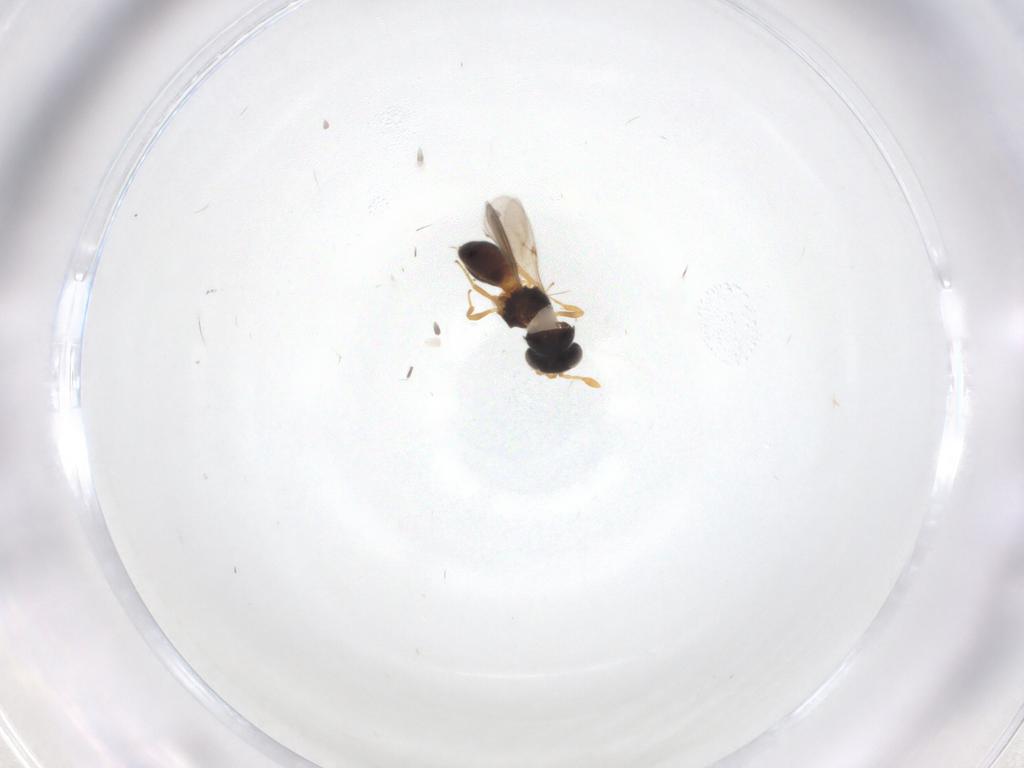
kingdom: Animalia
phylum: Arthropoda
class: Insecta
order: Hymenoptera
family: Scelionidae
